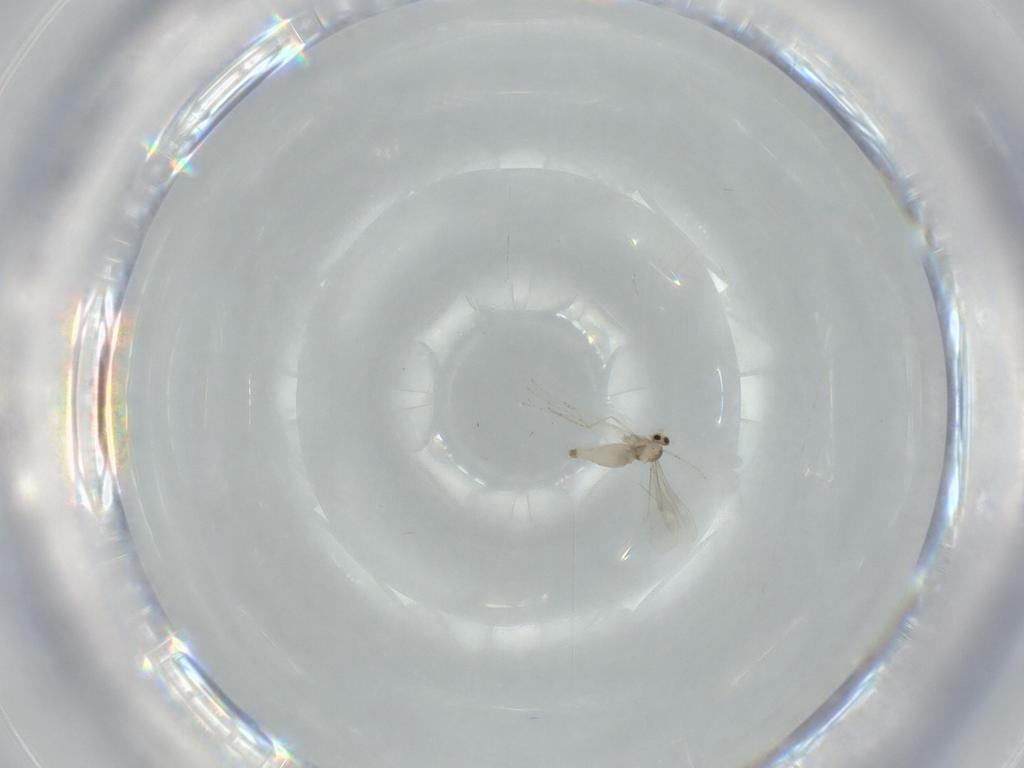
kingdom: Animalia
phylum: Arthropoda
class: Insecta
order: Diptera
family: Cecidomyiidae
